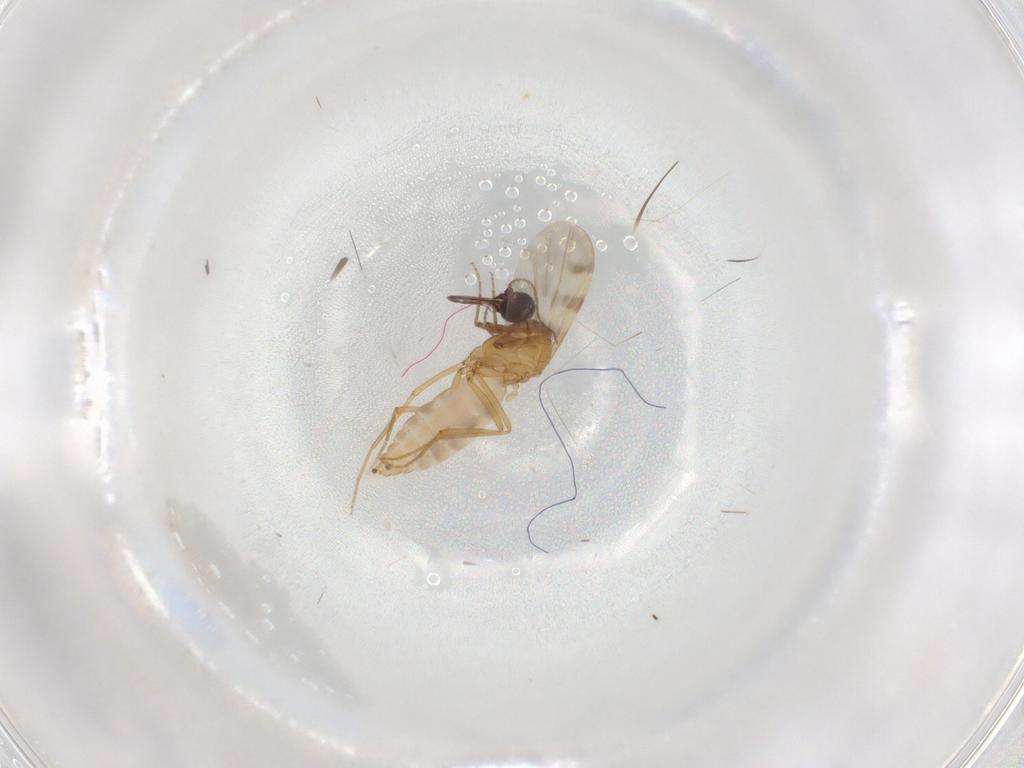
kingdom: Animalia
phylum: Arthropoda
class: Insecta
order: Diptera
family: Ceratopogonidae
